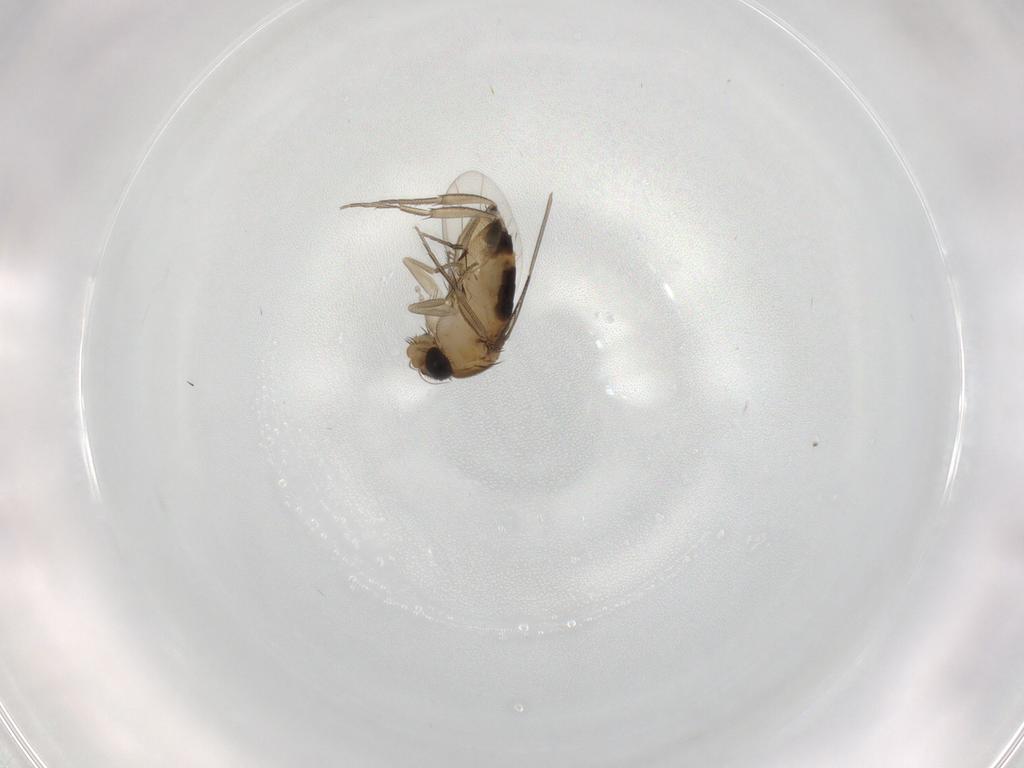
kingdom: Animalia
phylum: Arthropoda
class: Insecta
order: Diptera
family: Phoridae
